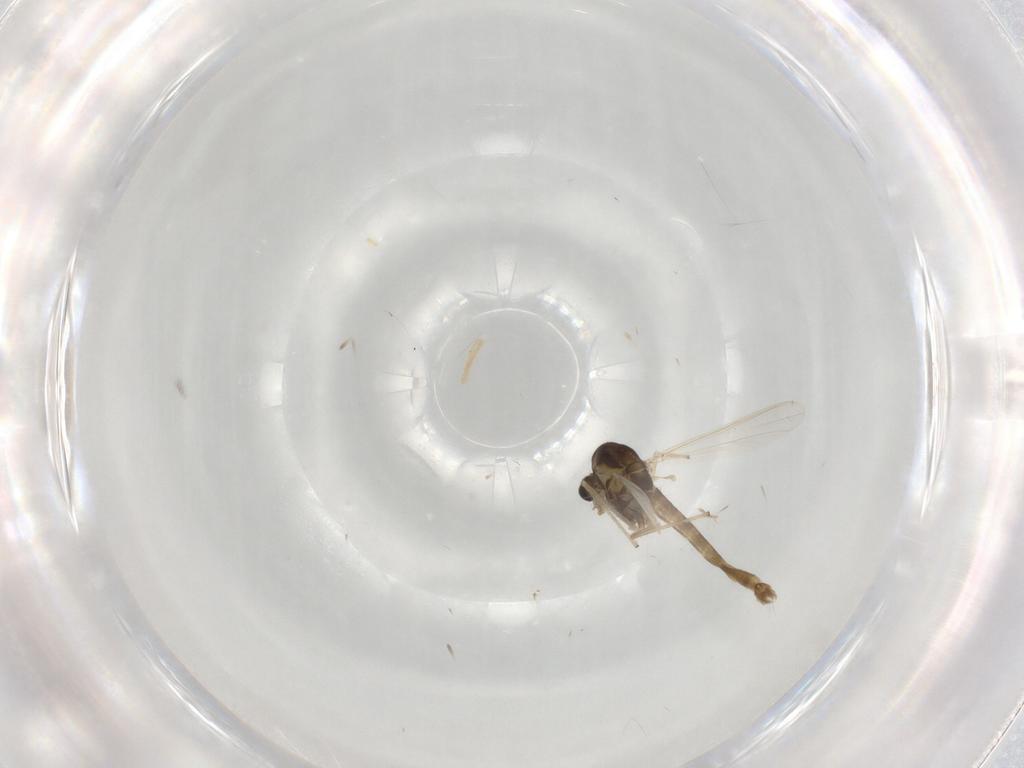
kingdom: Animalia
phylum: Arthropoda
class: Insecta
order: Diptera
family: Chironomidae
